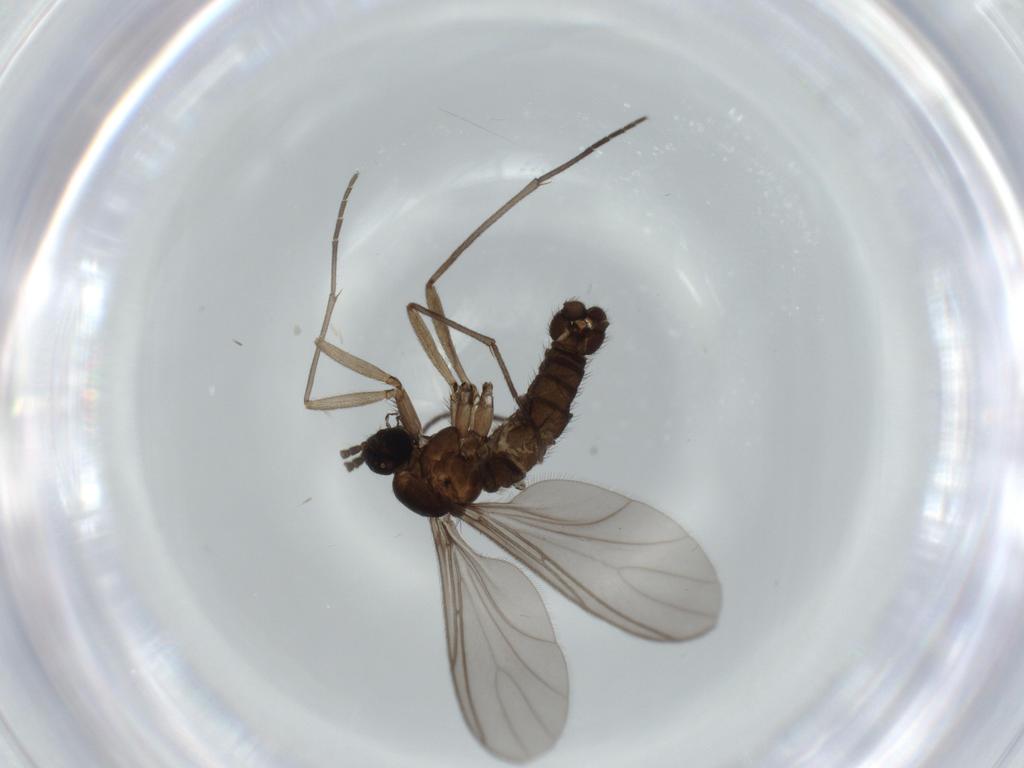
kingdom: Animalia
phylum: Arthropoda
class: Insecta
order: Diptera
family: Sciaridae
